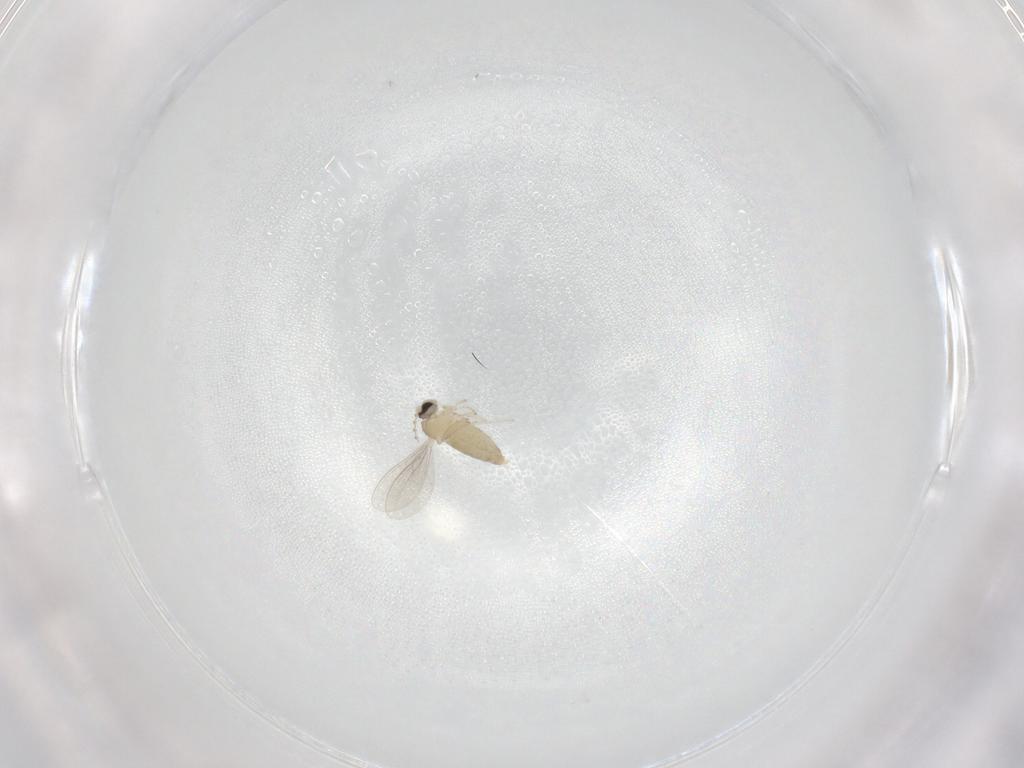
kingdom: Animalia
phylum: Arthropoda
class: Insecta
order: Diptera
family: Cecidomyiidae
